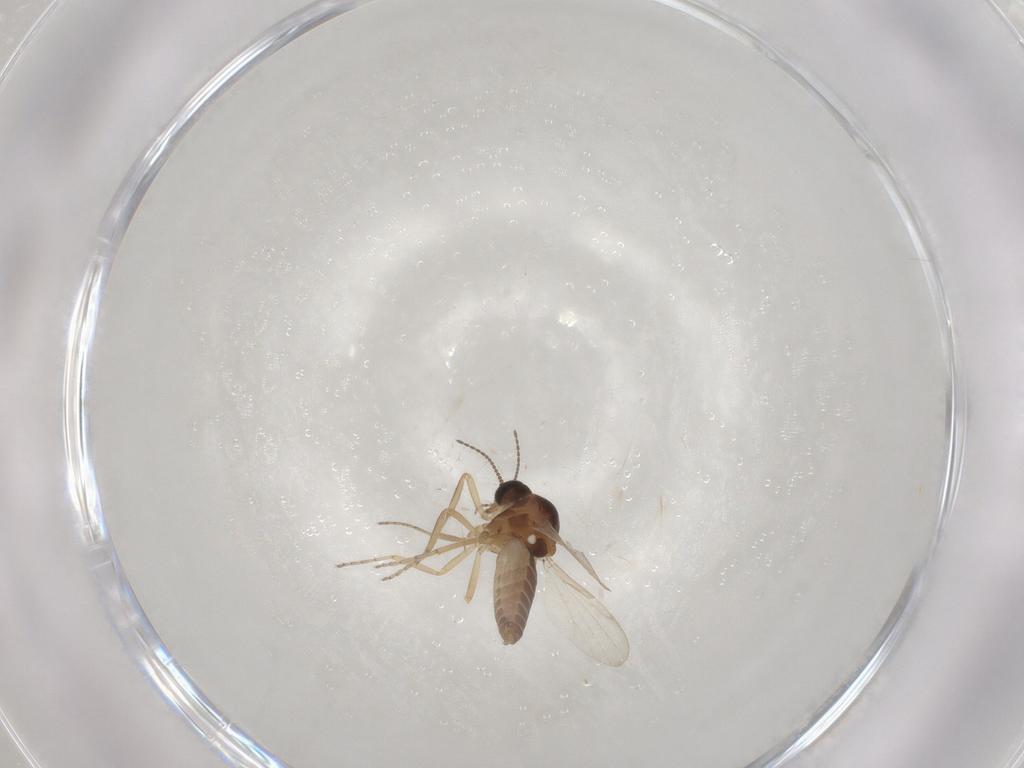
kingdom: Animalia
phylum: Arthropoda
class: Insecta
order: Diptera
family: Ceratopogonidae
